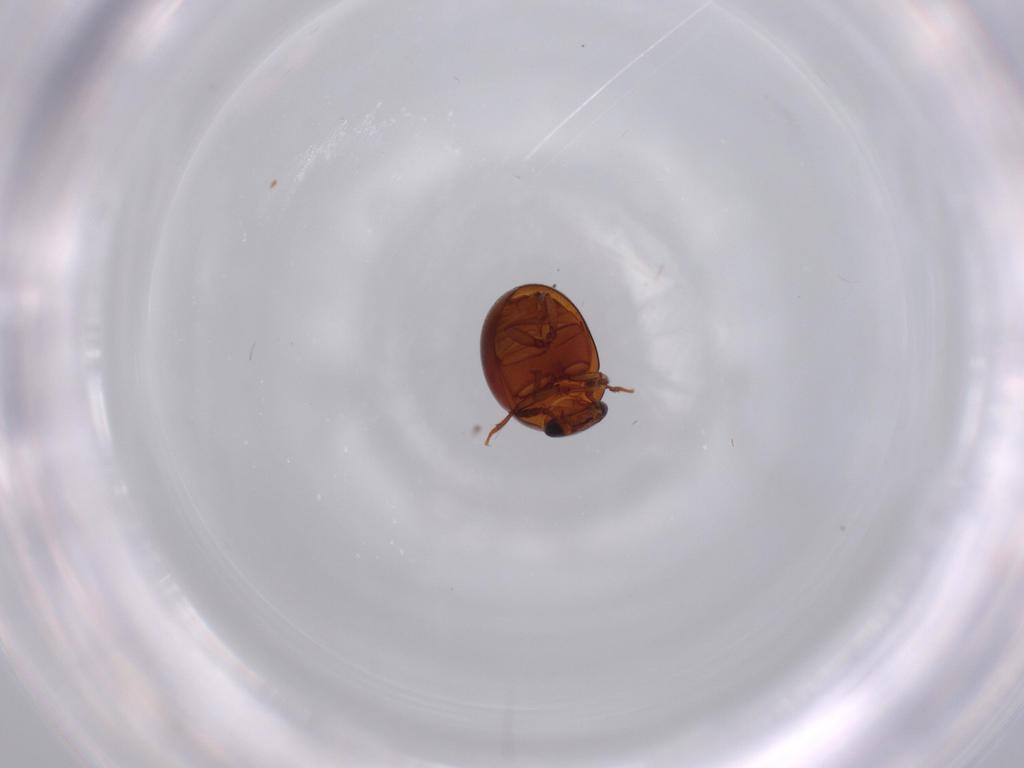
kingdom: Animalia
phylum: Arthropoda
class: Insecta
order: Coleoptera
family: Leiodidae
